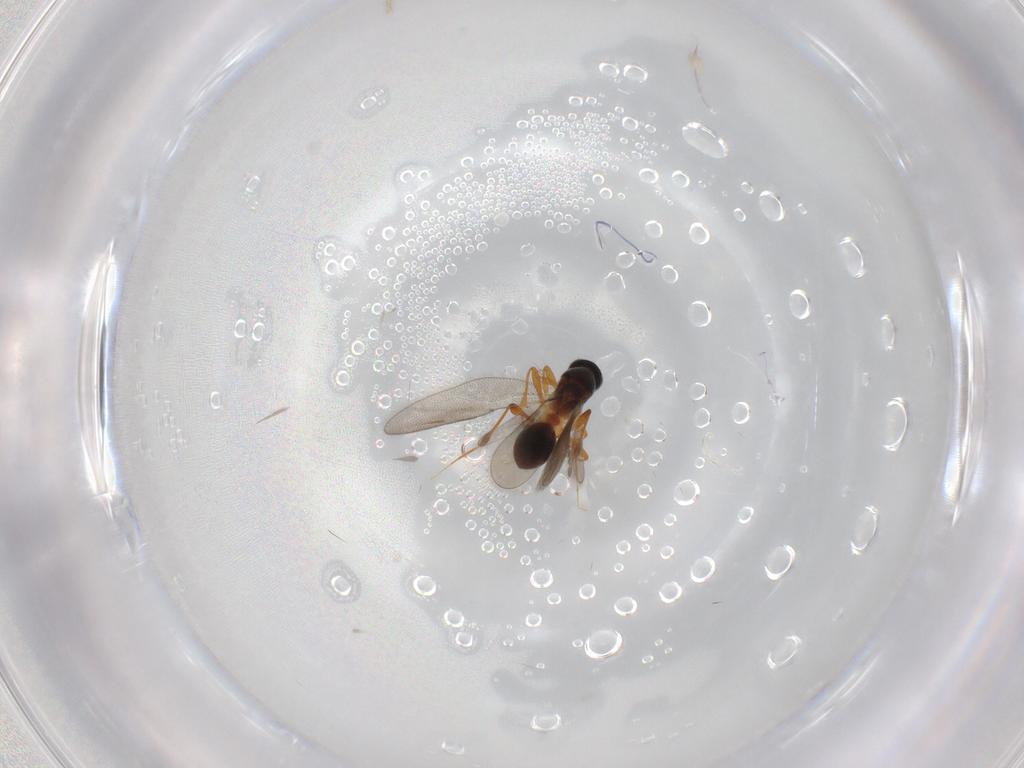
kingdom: Animalia
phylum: Arthropoda
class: Insecta
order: Hymenoptera
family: Platygastridae
